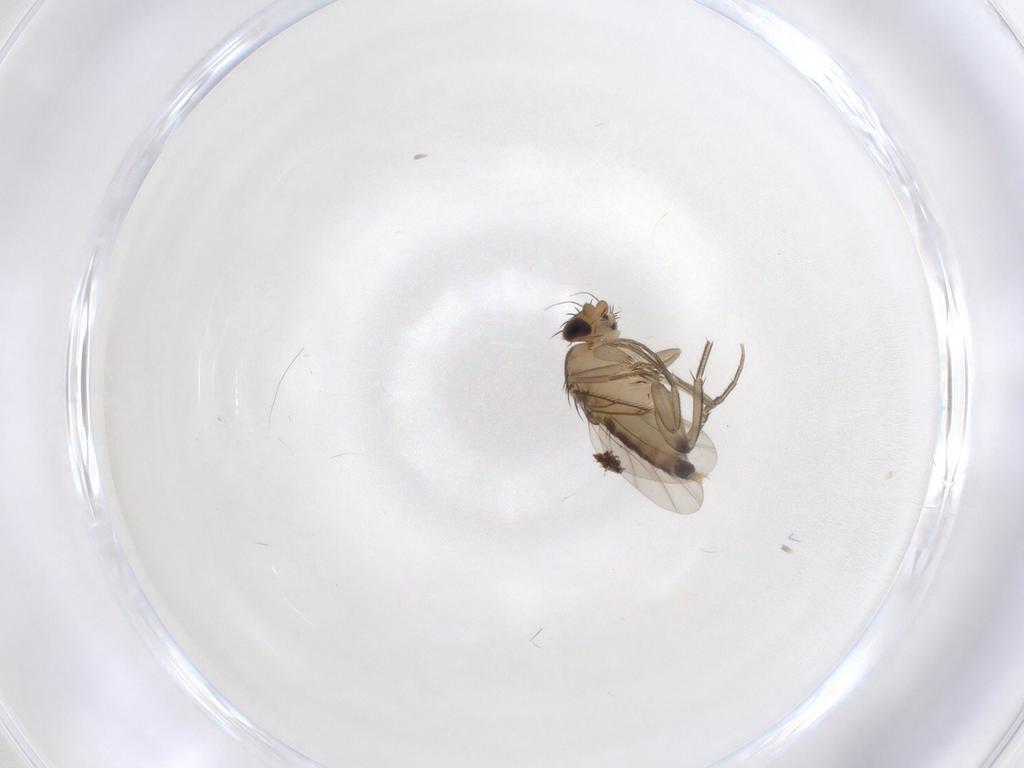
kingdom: Animalia
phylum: Arthropoda
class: Insecta
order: Diptera
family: Phoridae
